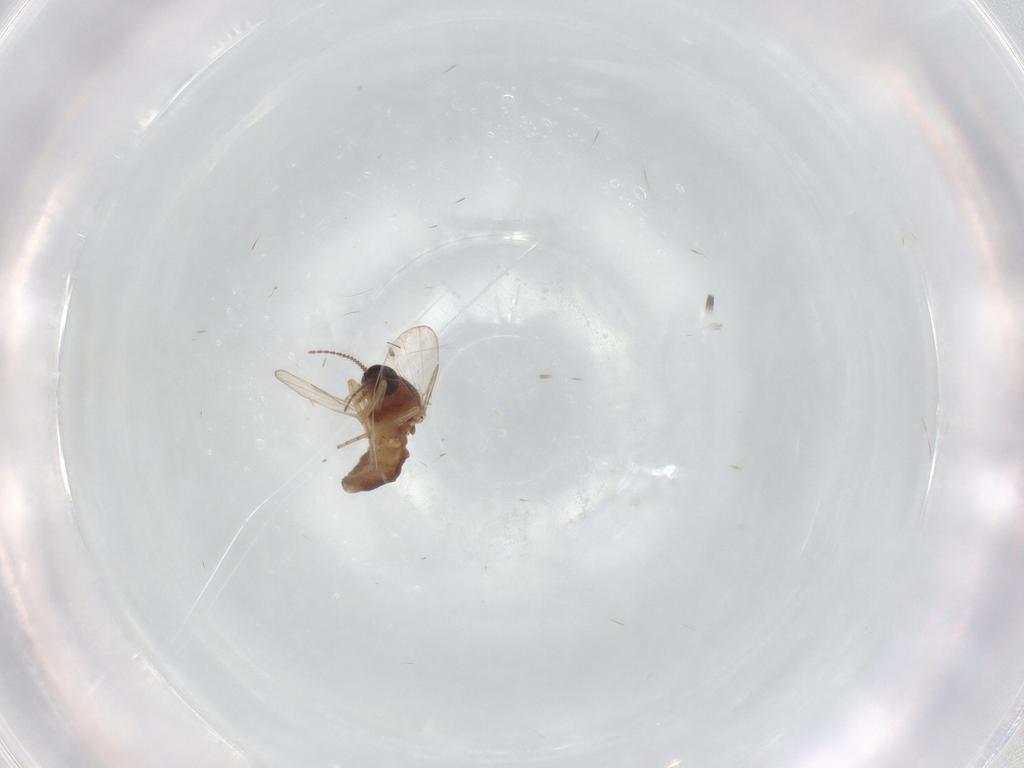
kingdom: Animalia
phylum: Arthropoda
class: Insecta
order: Diptera
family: Ceratopogonidae
